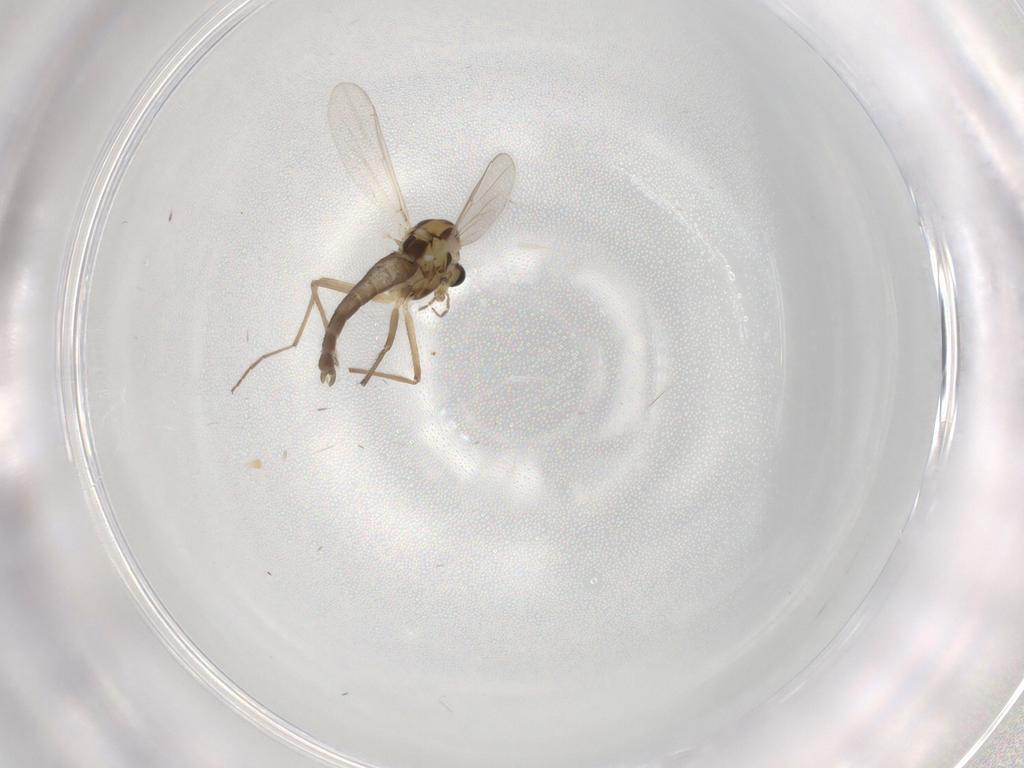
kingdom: Animalia
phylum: Arthropoda
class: Insecta
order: Diptera
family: Chironomidae
